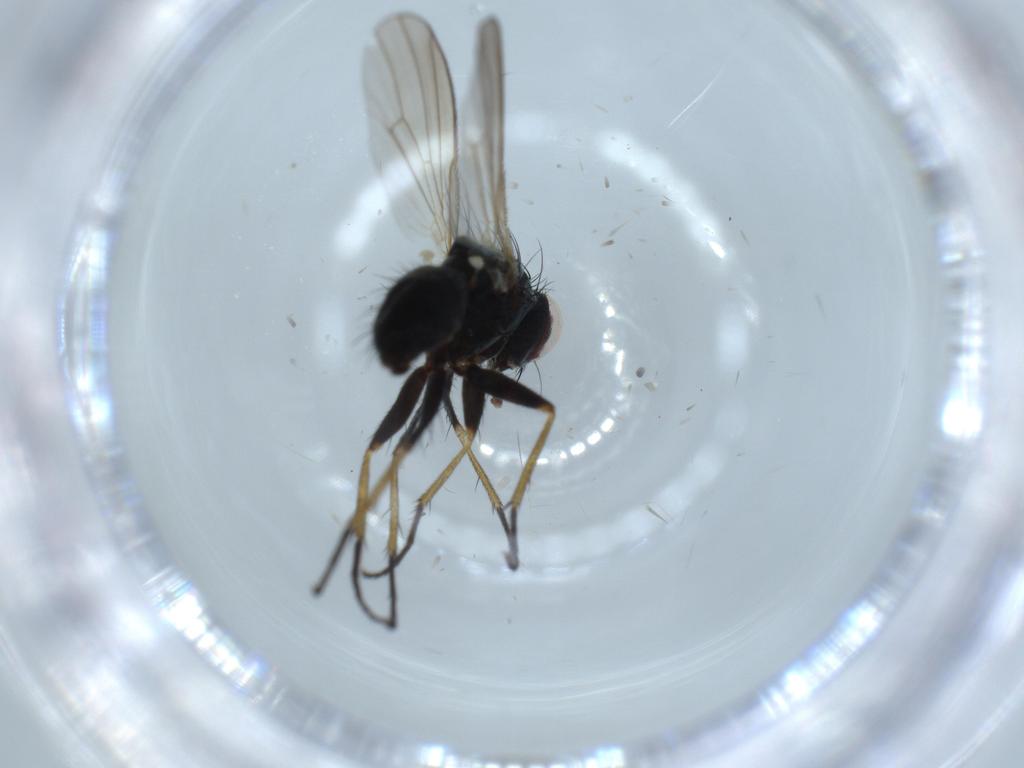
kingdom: Animalia
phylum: Arthropoda
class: Insecta
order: Diptera
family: Muscidae
